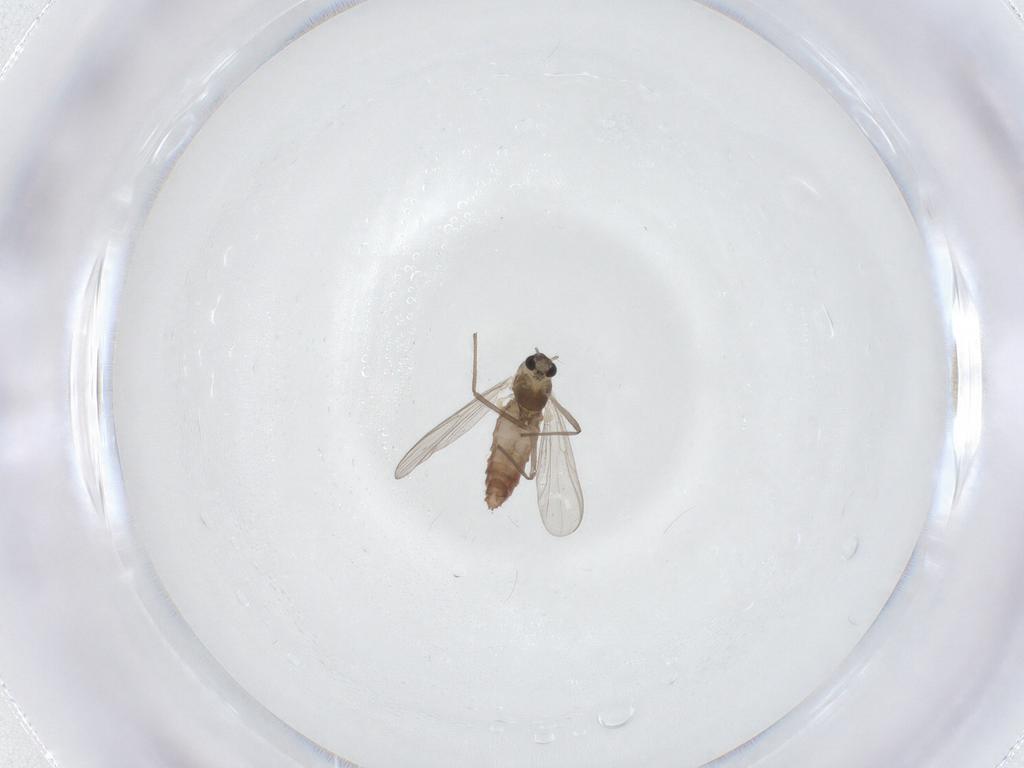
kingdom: Animalia
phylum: Arthropoda
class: Insecta
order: Diptera
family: Chironomidae
